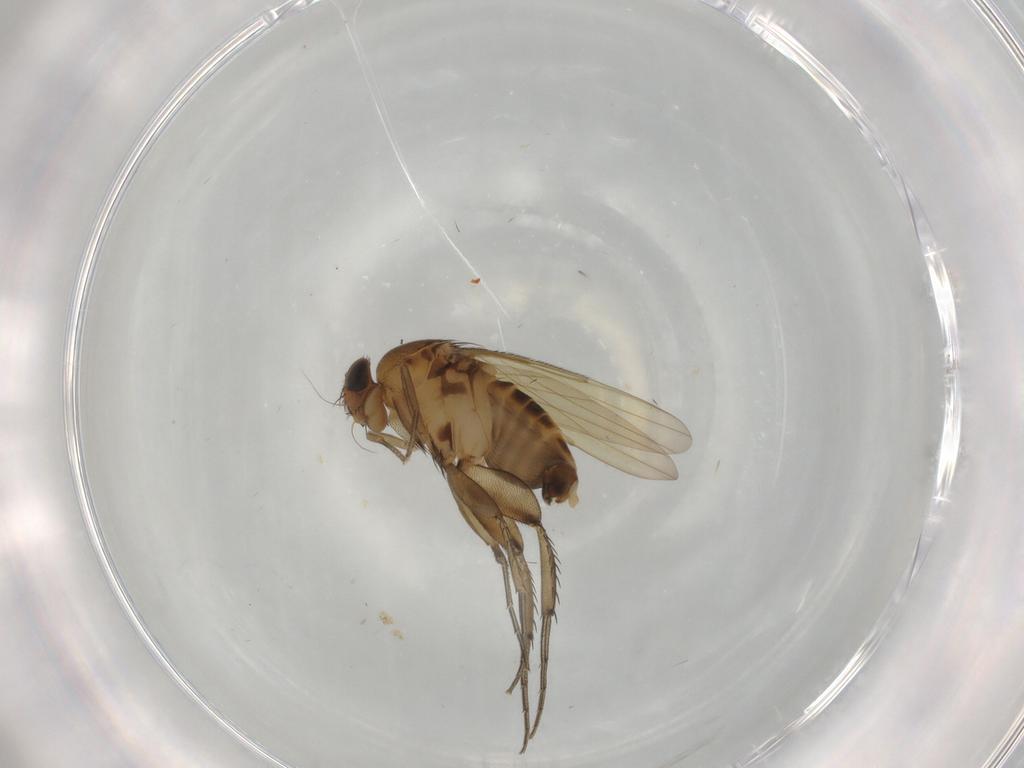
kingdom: Animalia
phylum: Arthropoda
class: Insecta
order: Diptera
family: Phoridae
